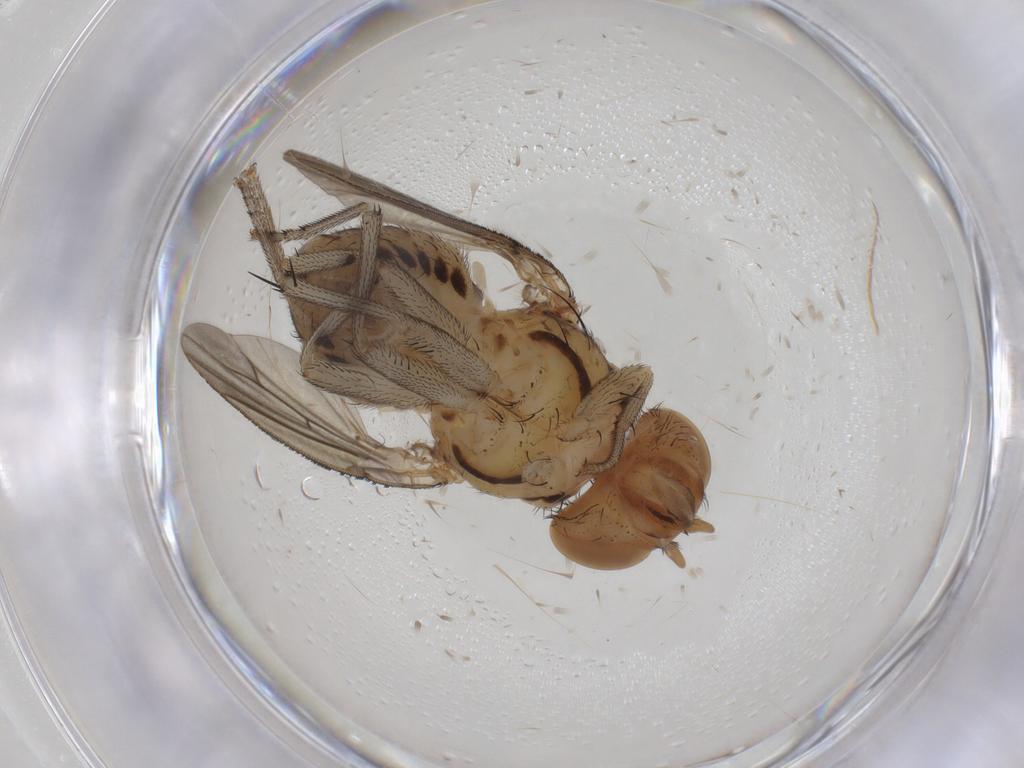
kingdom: Animalia
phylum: Arthropoda
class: Insecta
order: Diptera
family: Lauxaniidae
